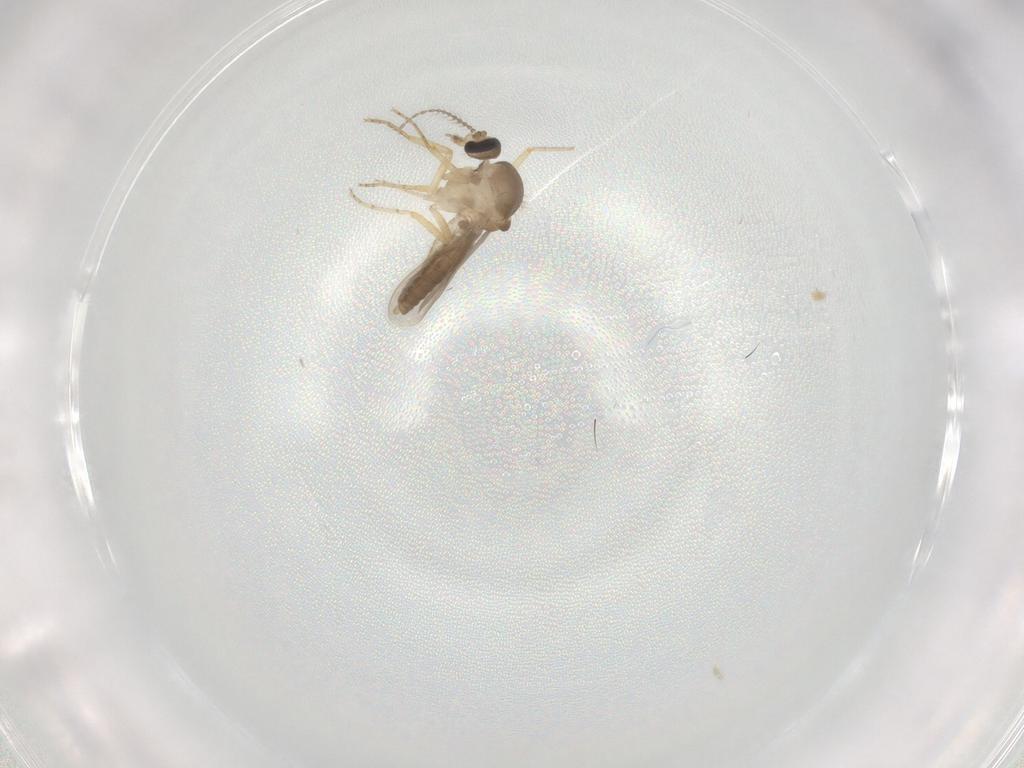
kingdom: Animalia
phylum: Arthropoda
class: Insecta
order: Diptera
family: Ceratopogonidae
